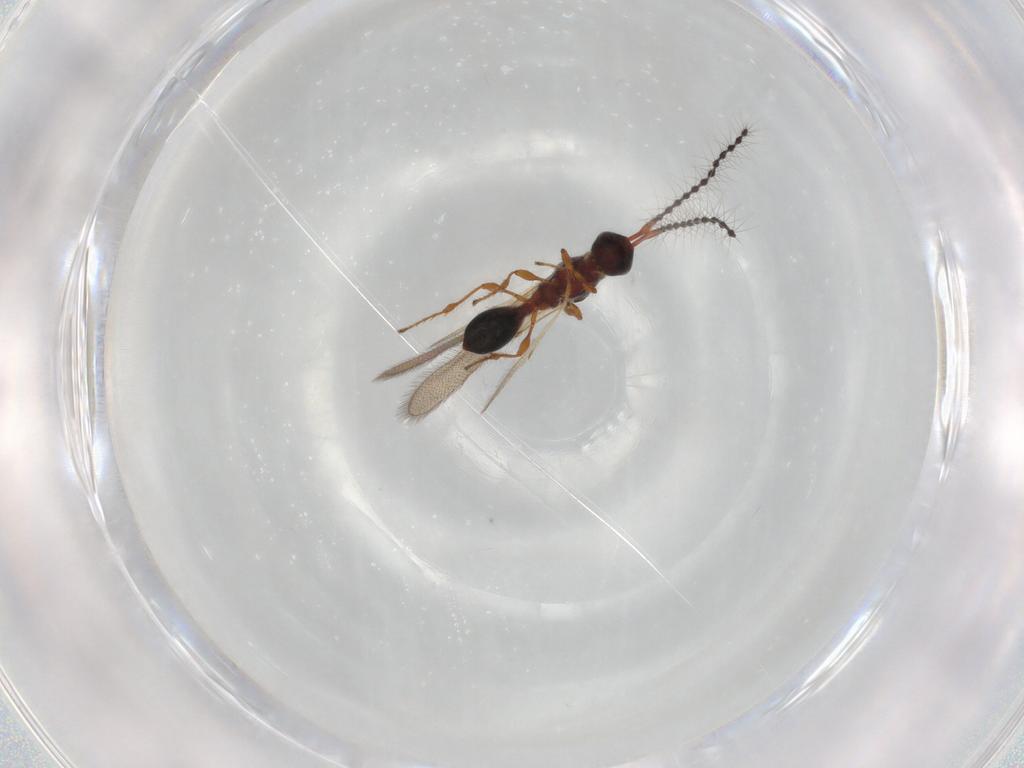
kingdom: Animalia
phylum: Arthropoda
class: Insecta
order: Hymenoptera
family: Diapriidae
